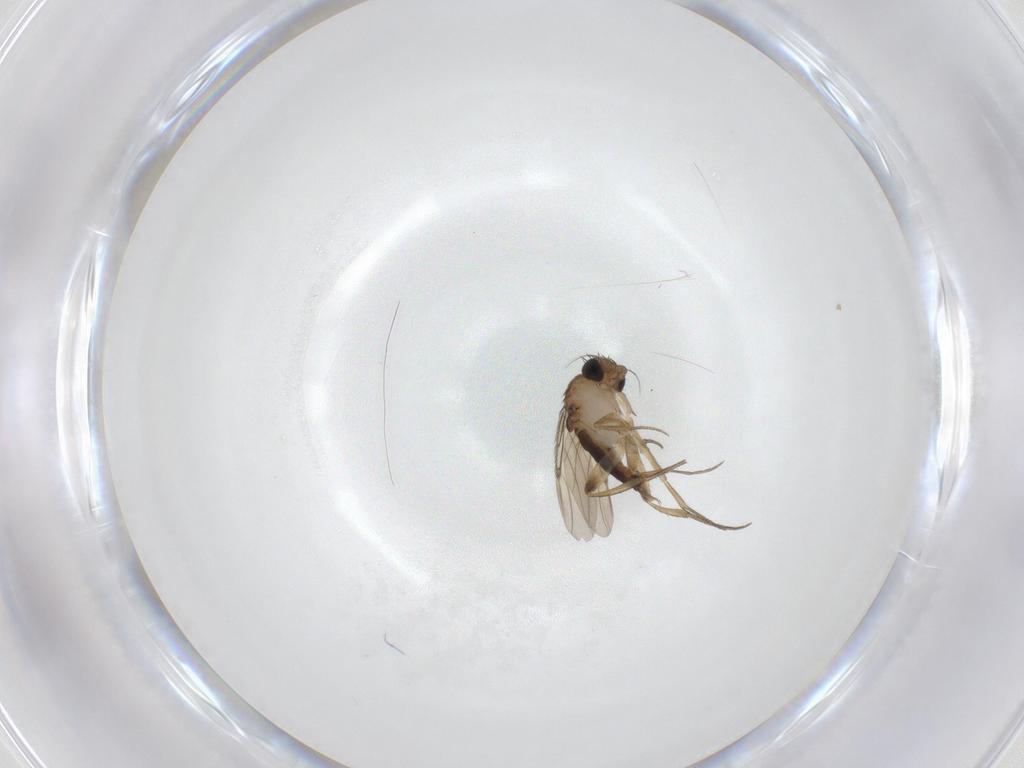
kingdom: Animalia
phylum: Arthropoda
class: Insecta
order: Diptera
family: Phoridae
